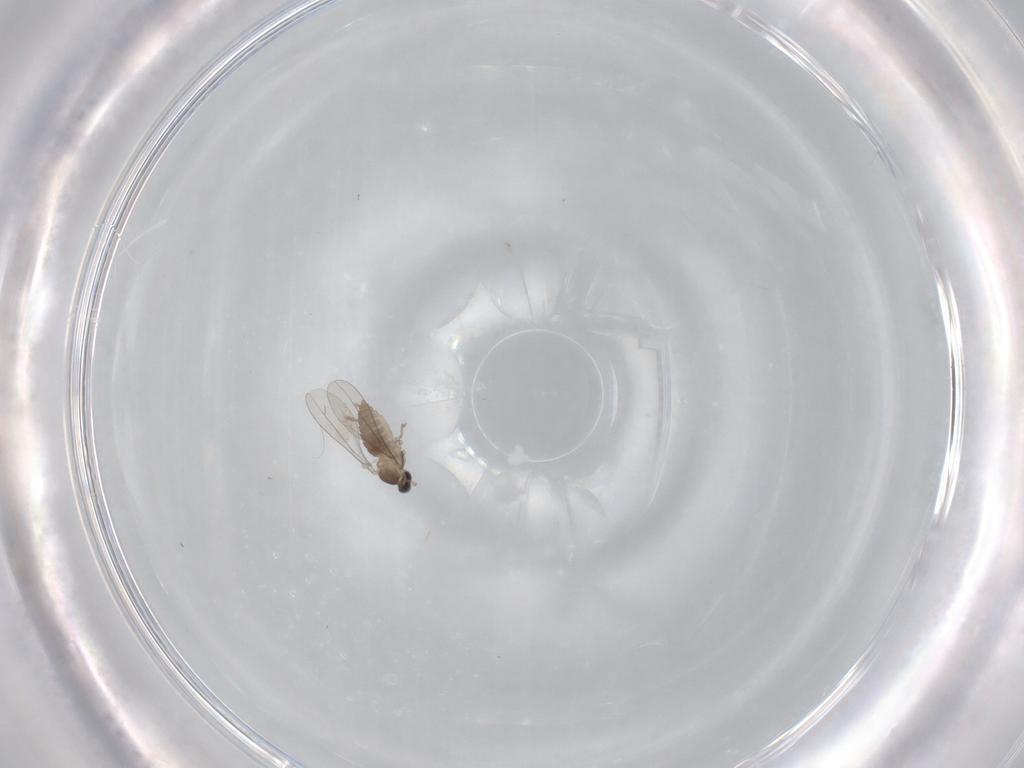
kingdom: Animalia
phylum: Arthropoda
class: Insecta
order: Diptera
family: Cecidomyiidae
